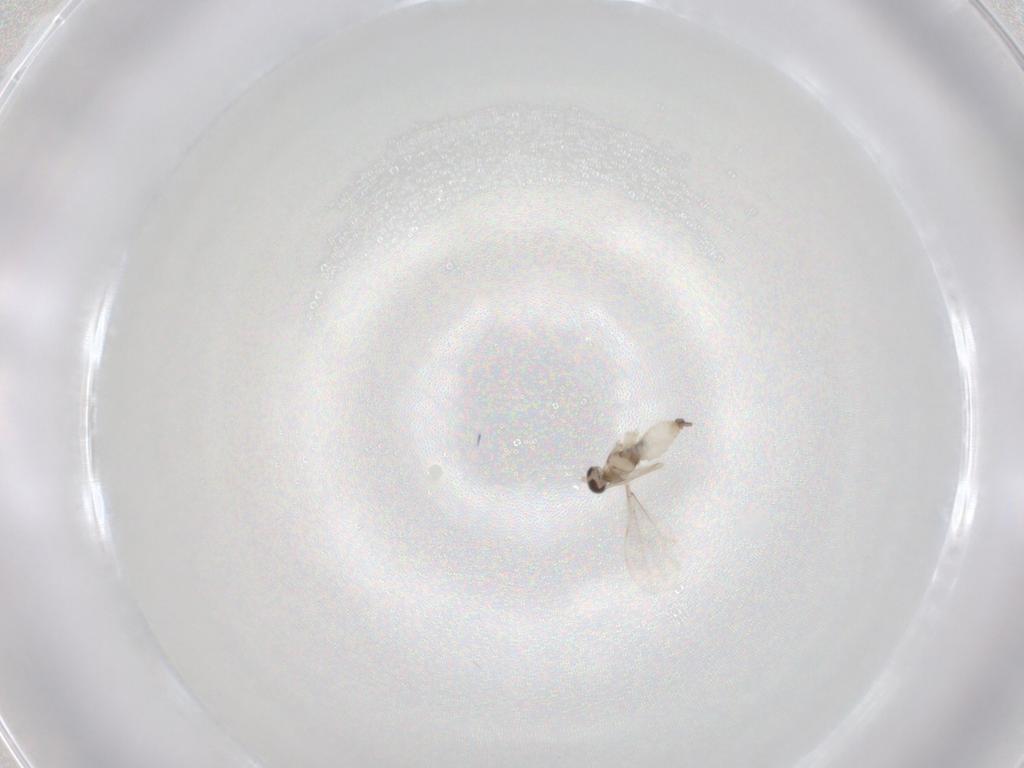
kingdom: Animalia
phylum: Arthropoda
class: Insecta
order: Diptera
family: Cecidomyiidae
